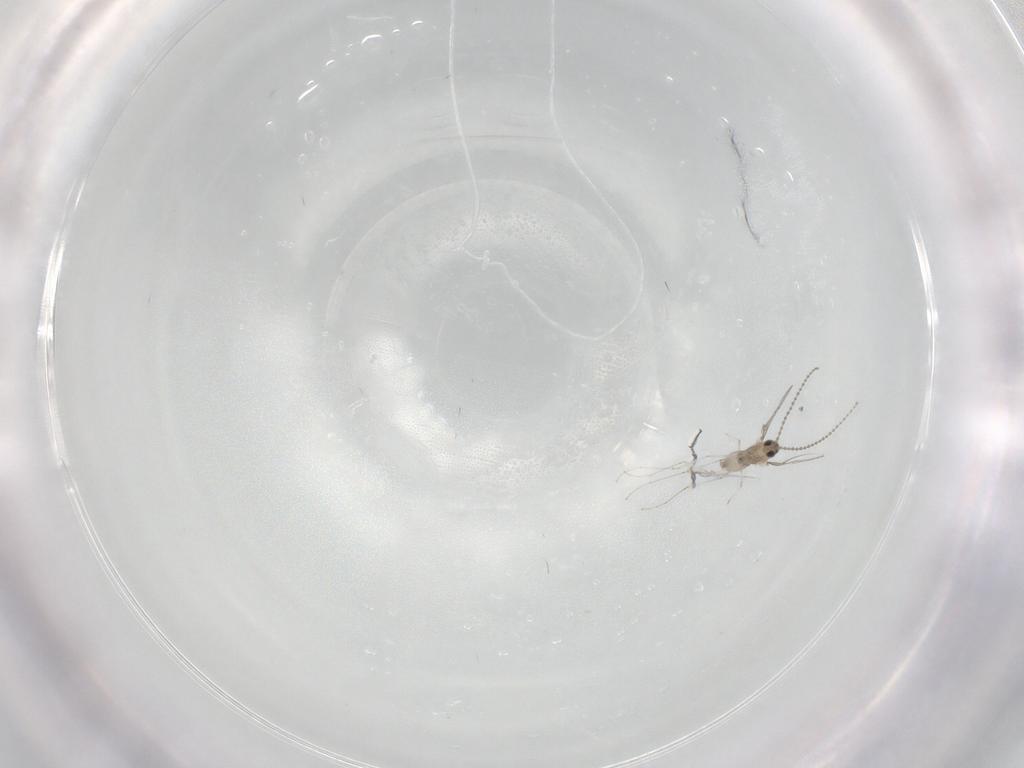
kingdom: Animalia
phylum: Arthropoda
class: Insecta
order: Diptera
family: Cecidomyiidae
